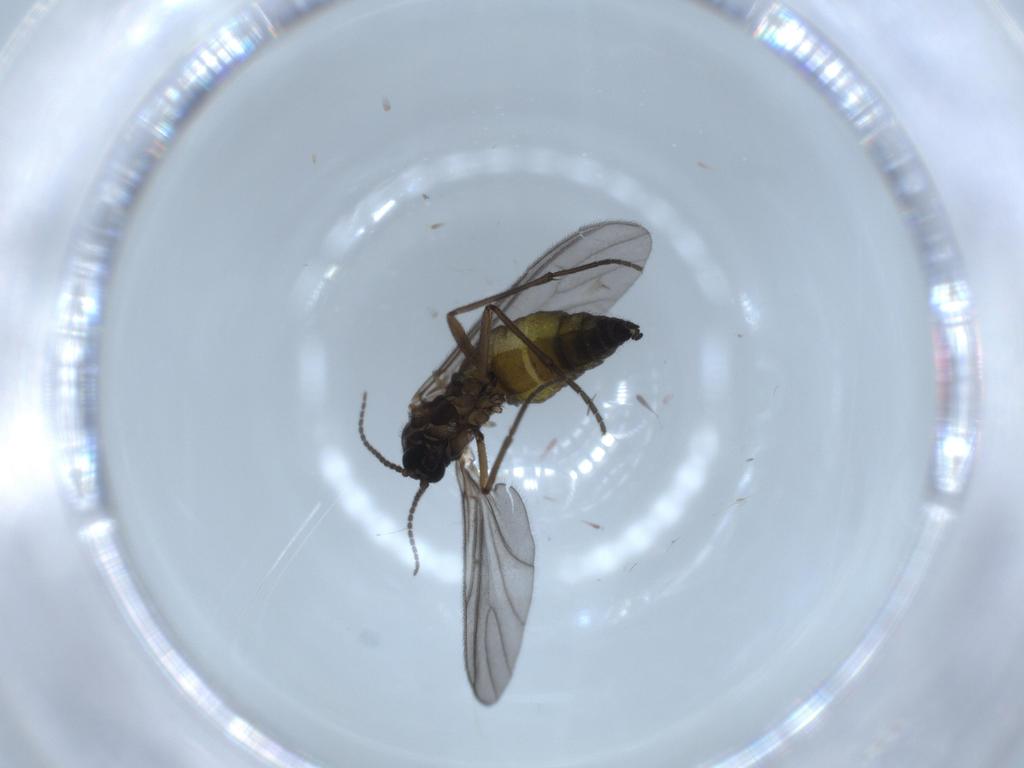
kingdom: Animalia
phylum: Arthropoda
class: Insecta
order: Diptera
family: Sciaridae
